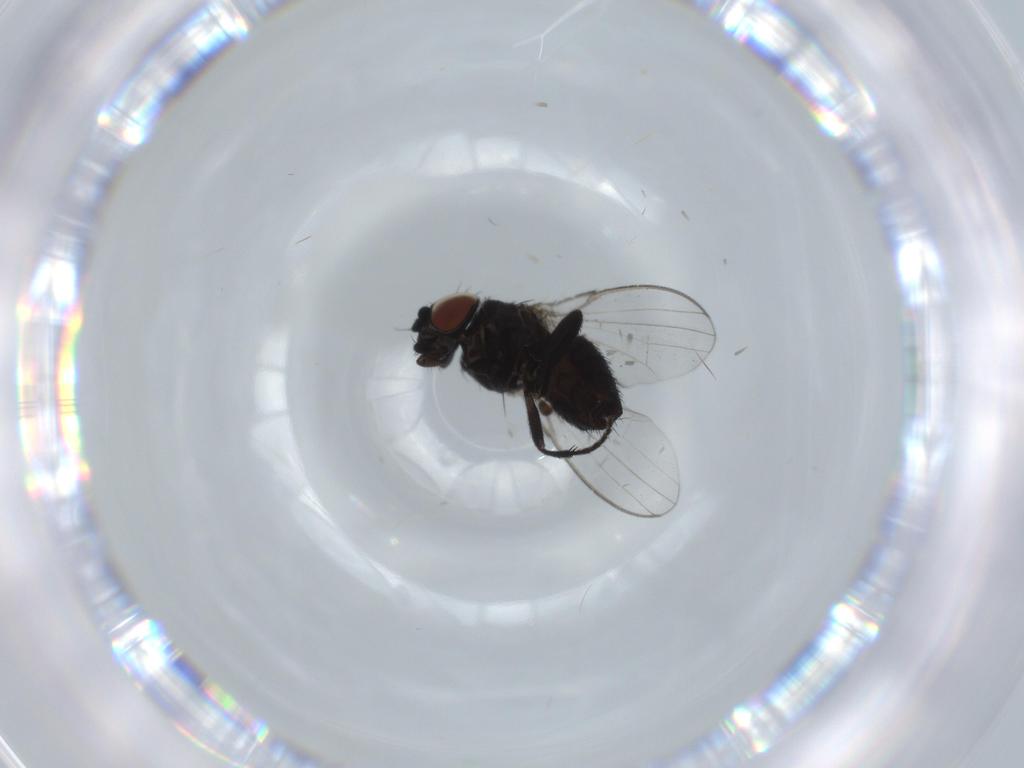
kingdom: Animalia
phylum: Arthropoda
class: Insecta
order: Diptera
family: Milichiidae
